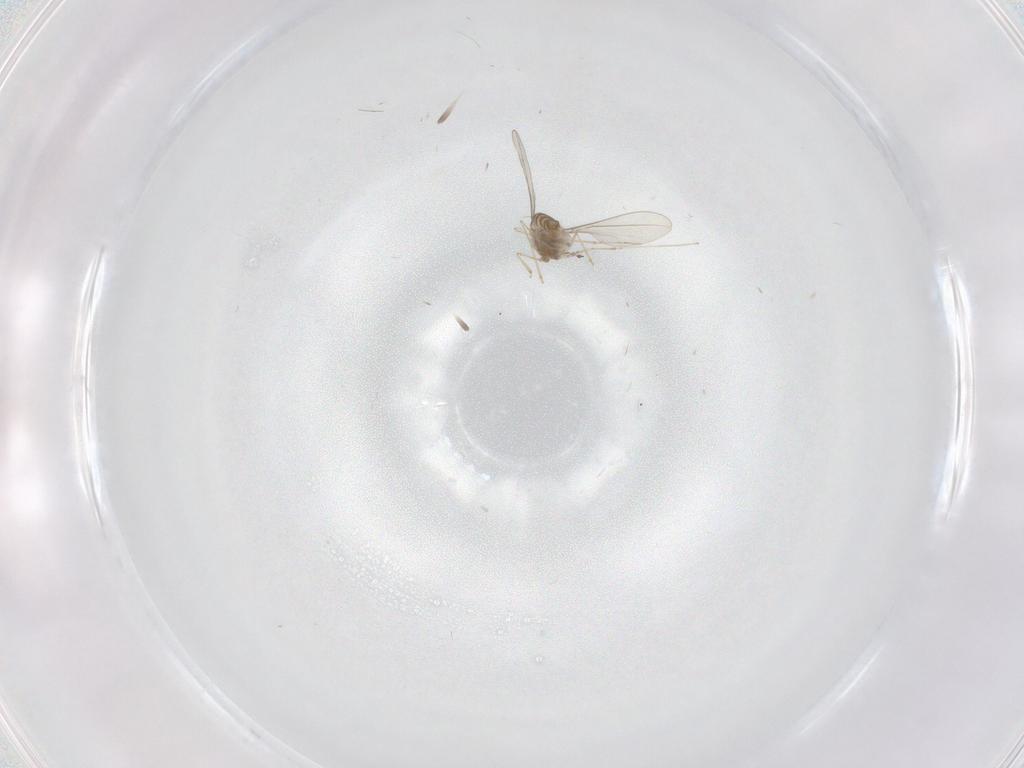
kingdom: Animalia
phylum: Arthropoda
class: Insecta
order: Diptera
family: Cecidomyiidae
